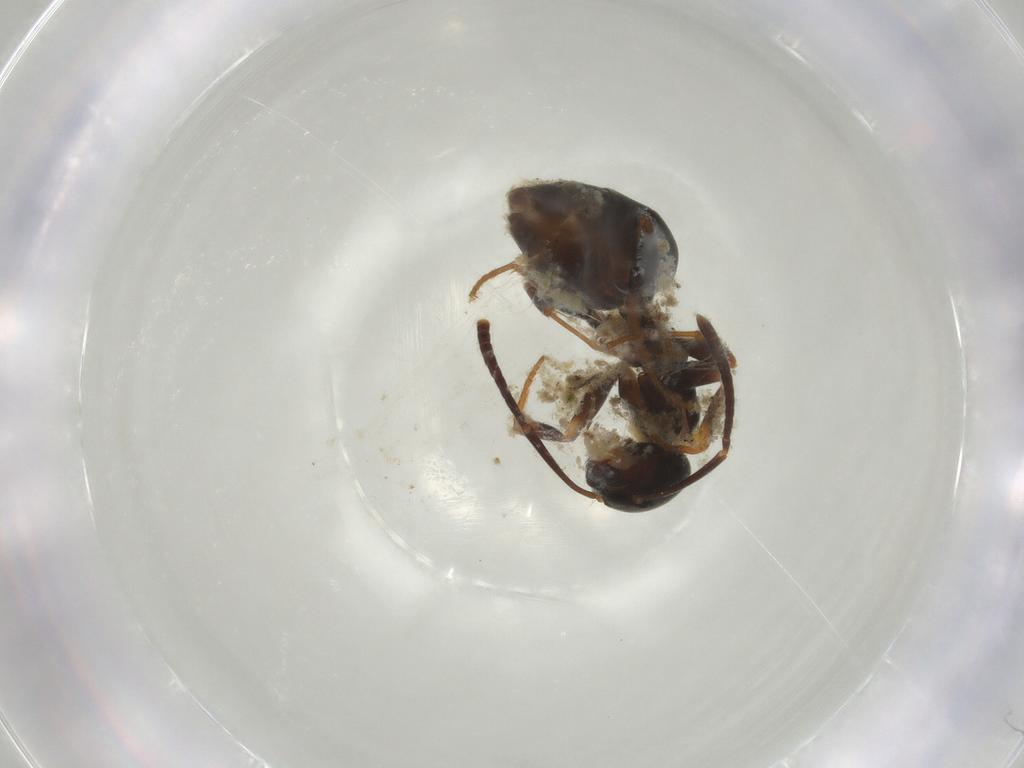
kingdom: Animalia
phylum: Arthropoda
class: Insecta
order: Hymenoptera
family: Formicidae
